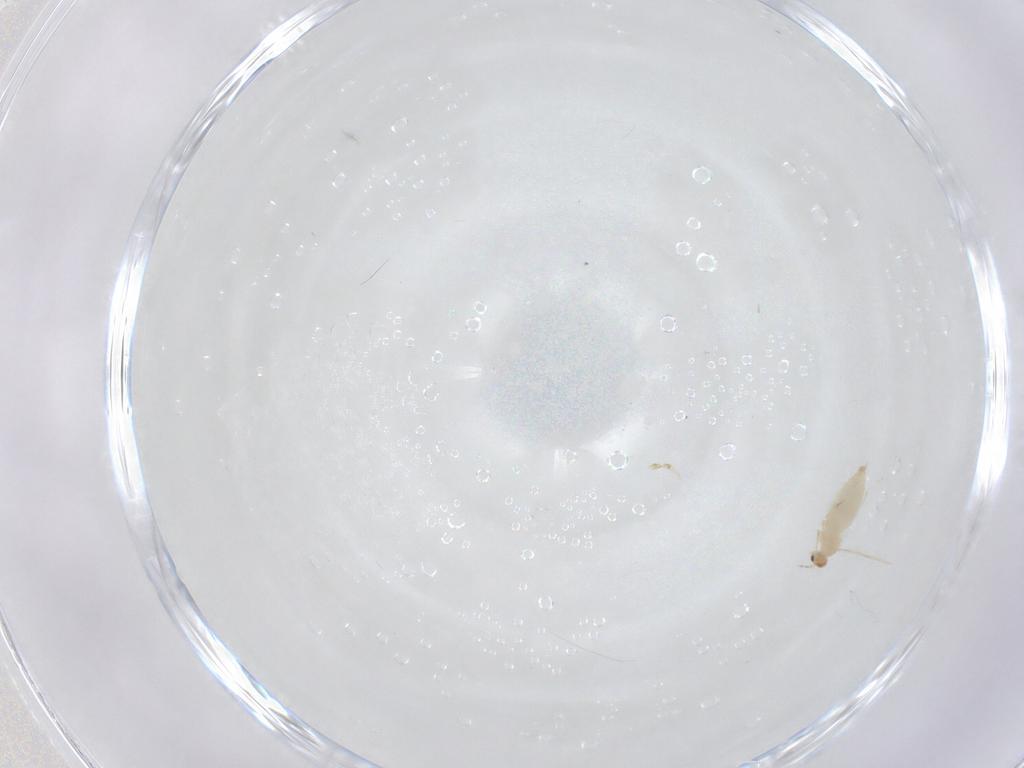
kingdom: Animalia
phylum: Arthropoda
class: Insecta
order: Diptera
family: Cecidomyiidae
